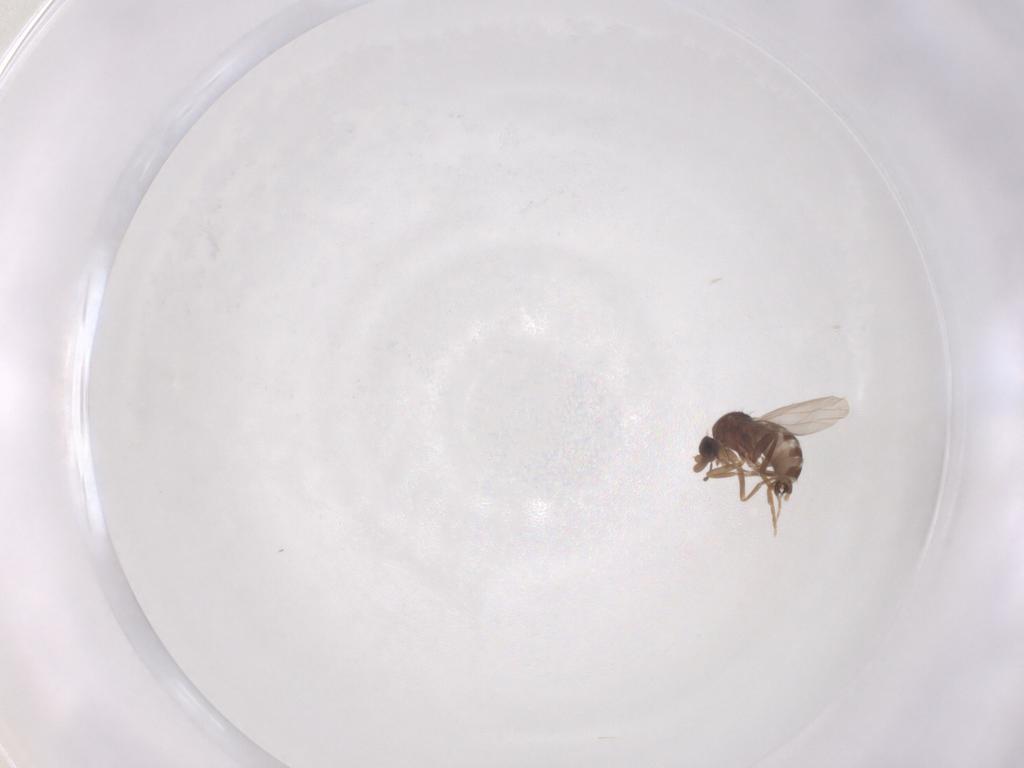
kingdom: Animalia
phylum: Arthropoda
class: Insecta
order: Diptera
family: Phoridae
